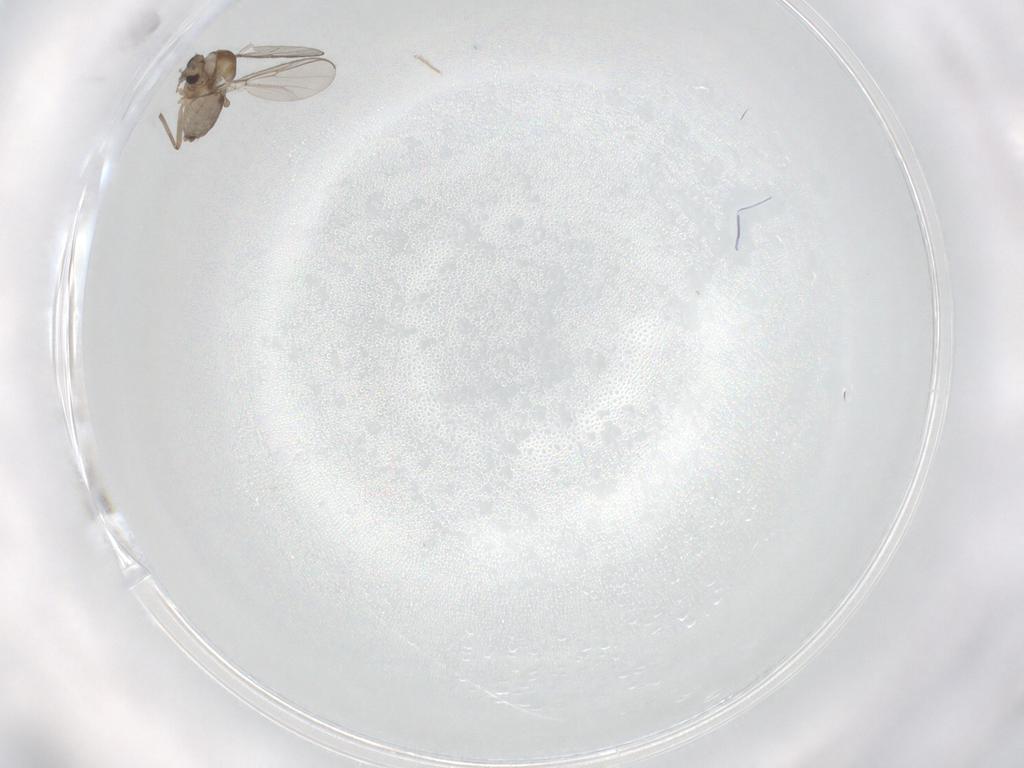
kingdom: Animalia
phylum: Arthropoda
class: Insecta
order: Diptera
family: Chironomidae
